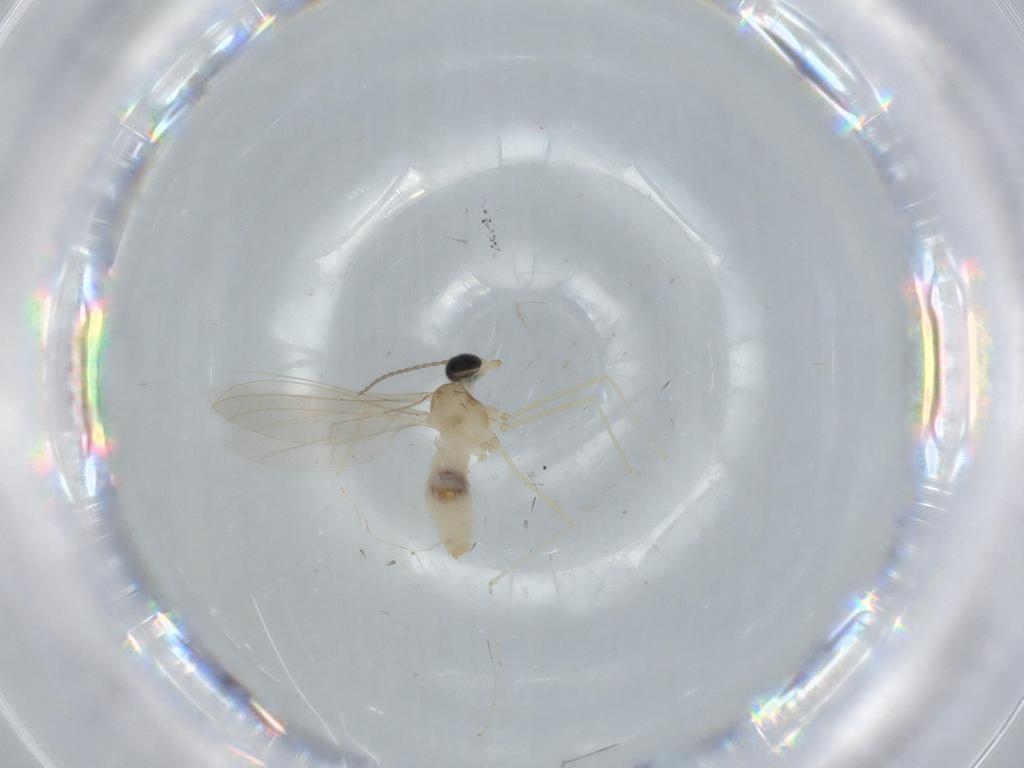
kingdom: Animalia
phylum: Arthropoda
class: Insecta
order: Diptera
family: Cecidomyiidae
